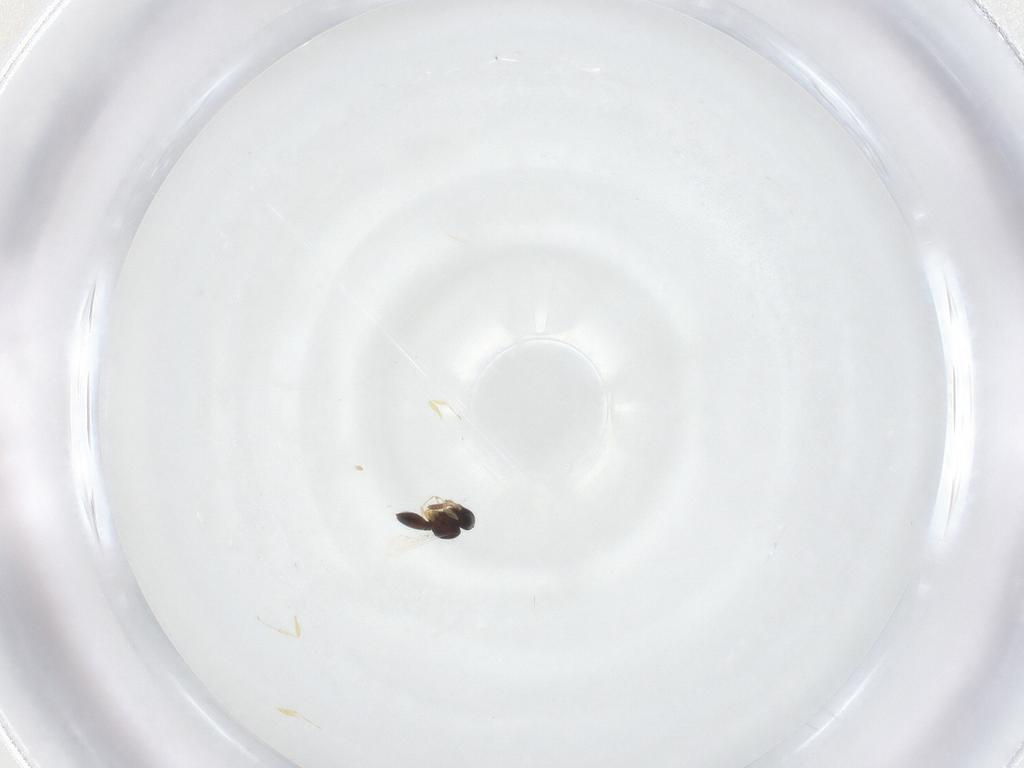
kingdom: Animalia
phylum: Arthropoda
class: Insecta
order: Hymenoptera
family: Scelionidae
